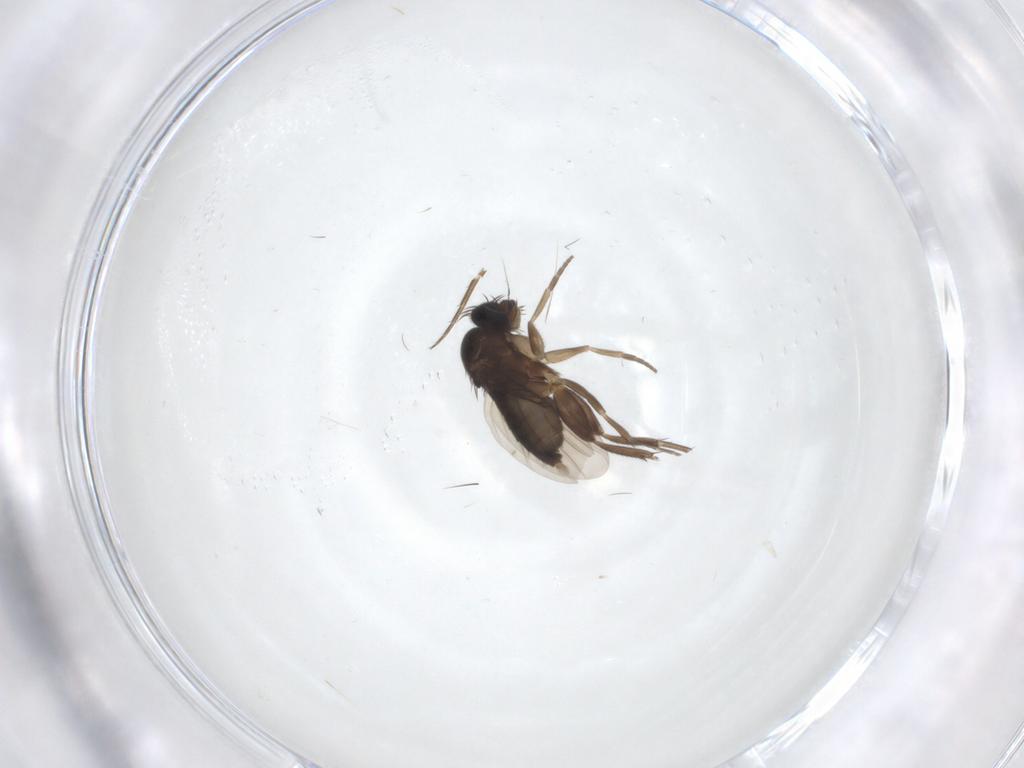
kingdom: Animalia
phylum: Arthropoda
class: Insecta
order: Diptera
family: Phoridae
